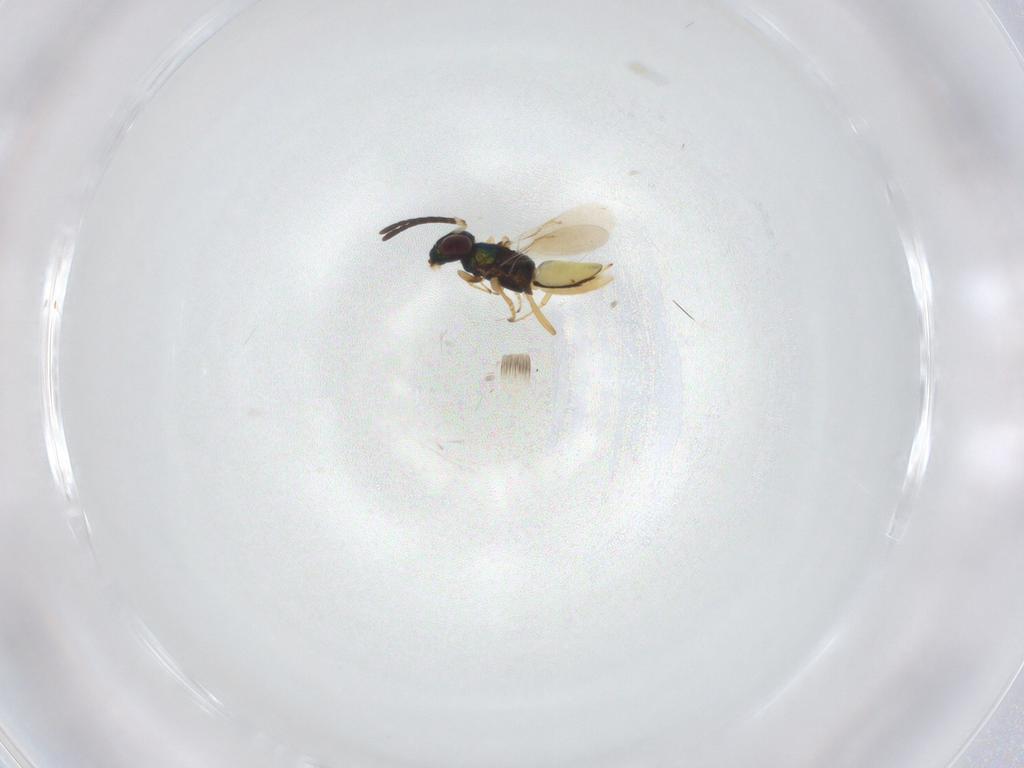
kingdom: Animalia
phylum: Arthropoda
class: Insecta
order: Hymenoptera
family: Encyrtidae
